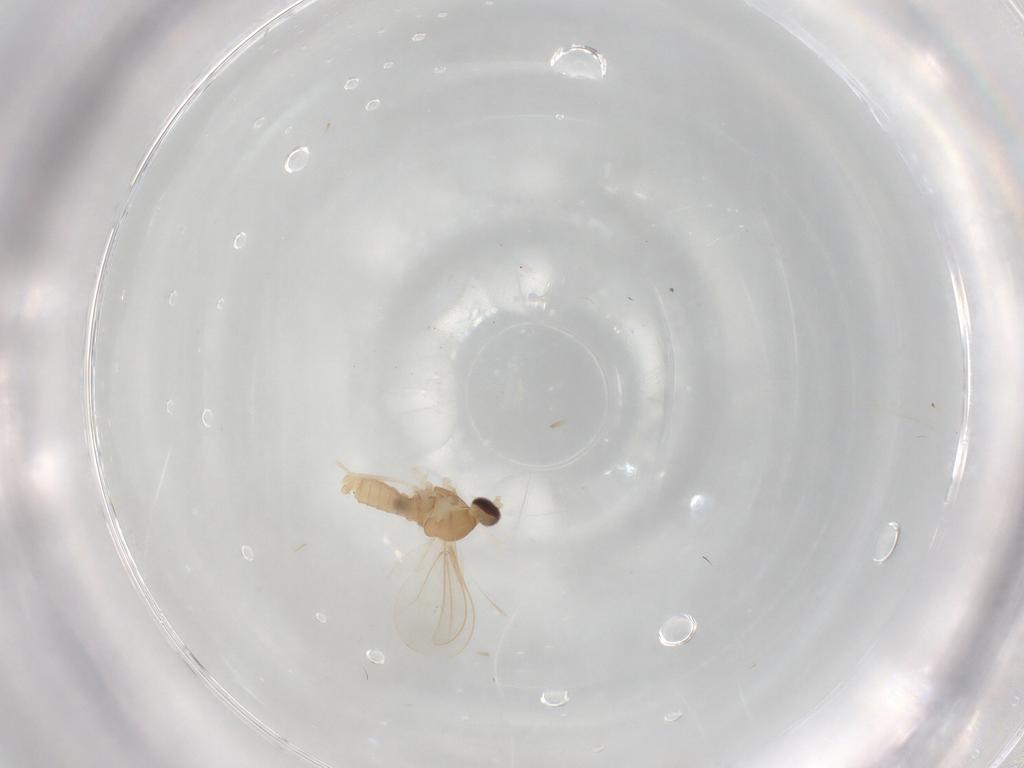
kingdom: Animalia
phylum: Arthropoda
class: Insecta
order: Diptera
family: Cecidomyiidae
